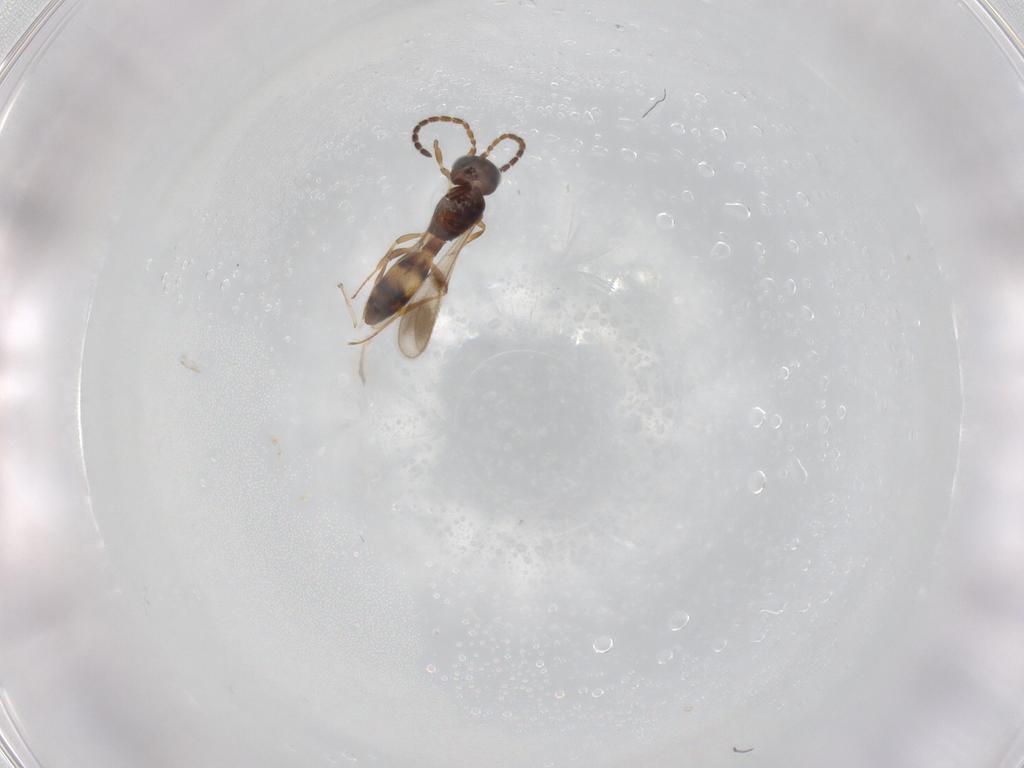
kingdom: Animalia
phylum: Arthropoda
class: Insecta
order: Hymenoptera
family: Scelionidae
